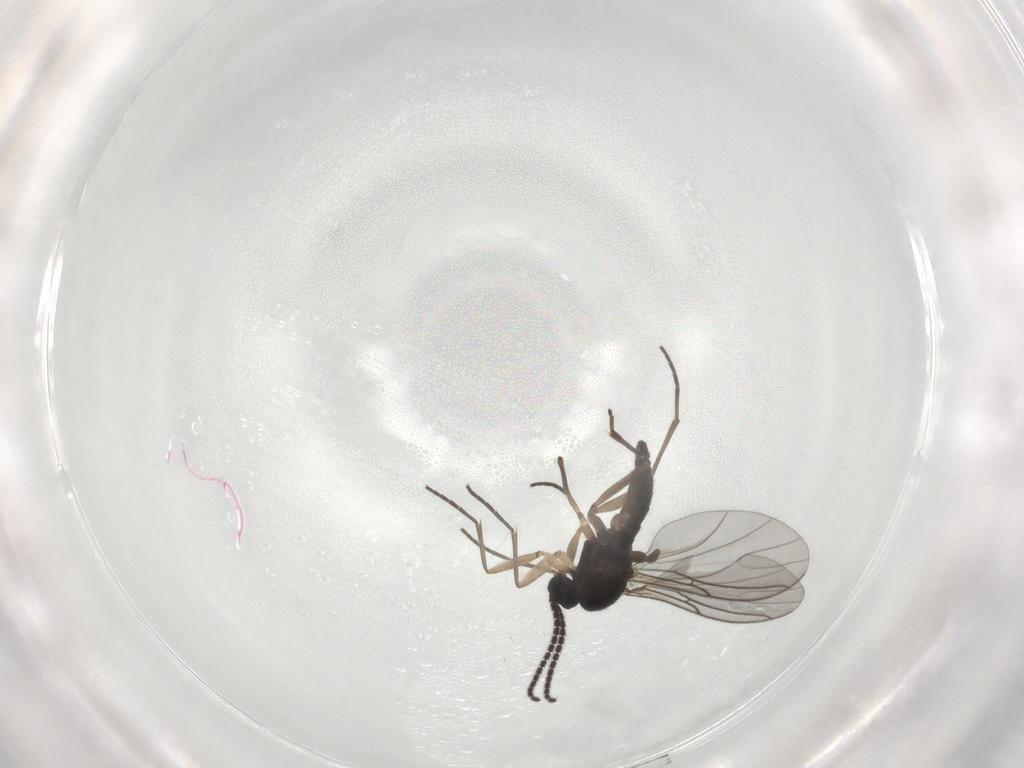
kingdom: Animalia
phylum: Arthropoda
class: Insecta
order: Diptera
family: Sciaridae
